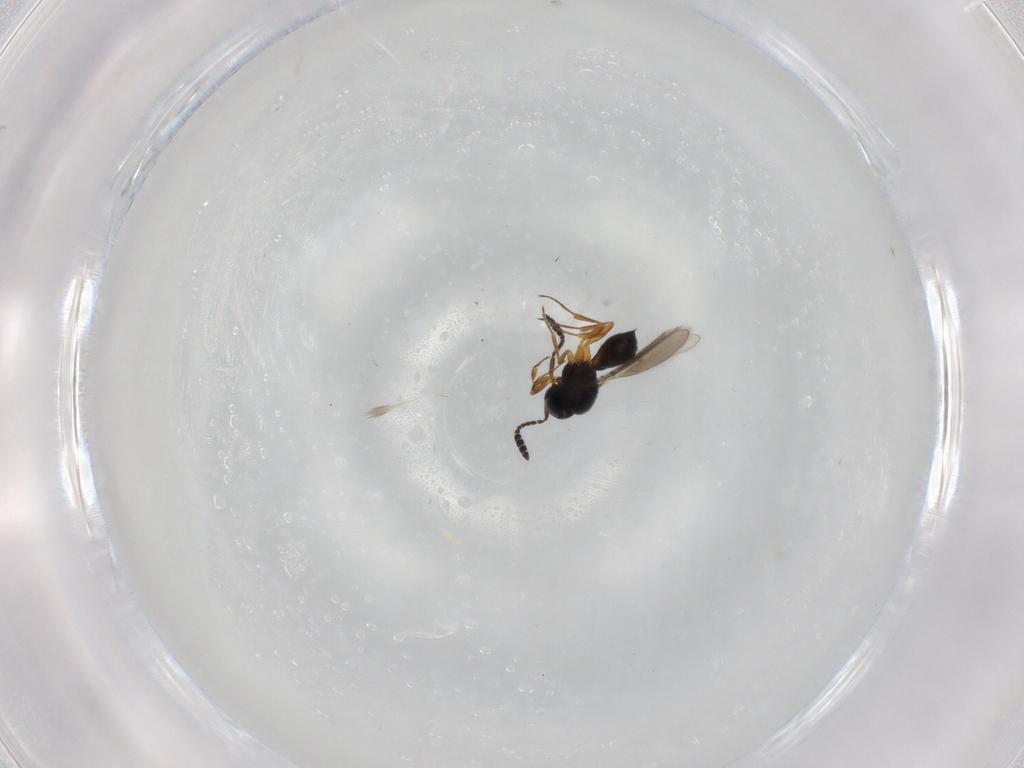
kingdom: Animalia
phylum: Arthropoda
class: Insecta
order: Hymenoptera
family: Scelionidae
